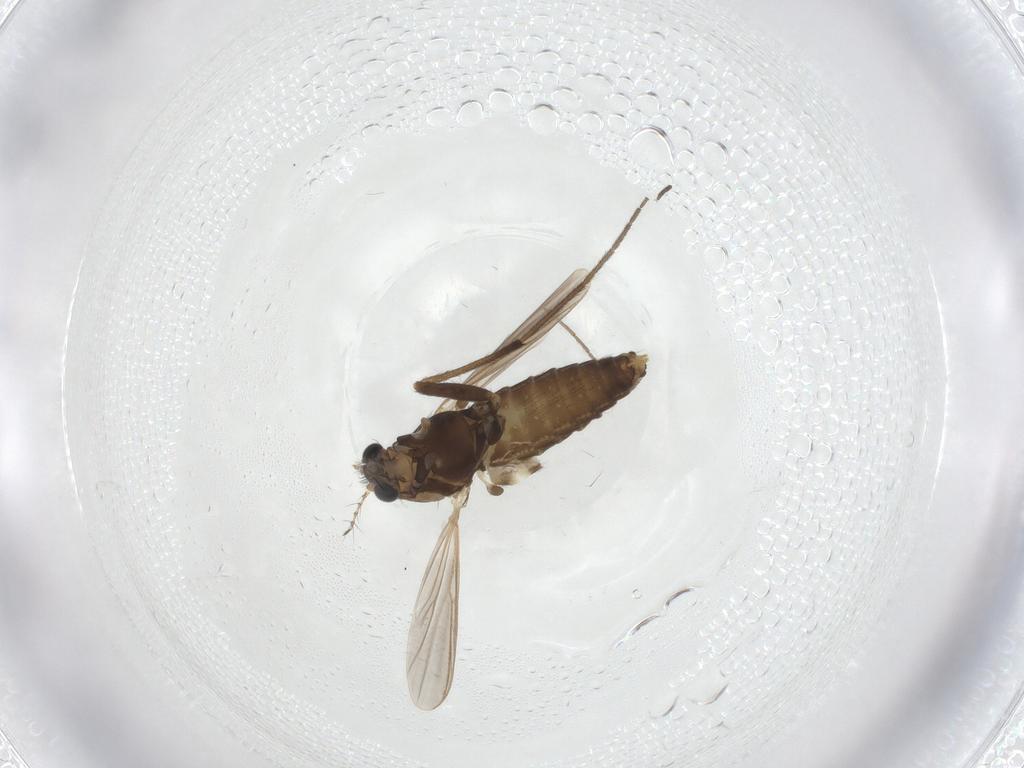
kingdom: Animalia
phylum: Arthropoda
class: Insecta
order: Diptera
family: Chironomidae
